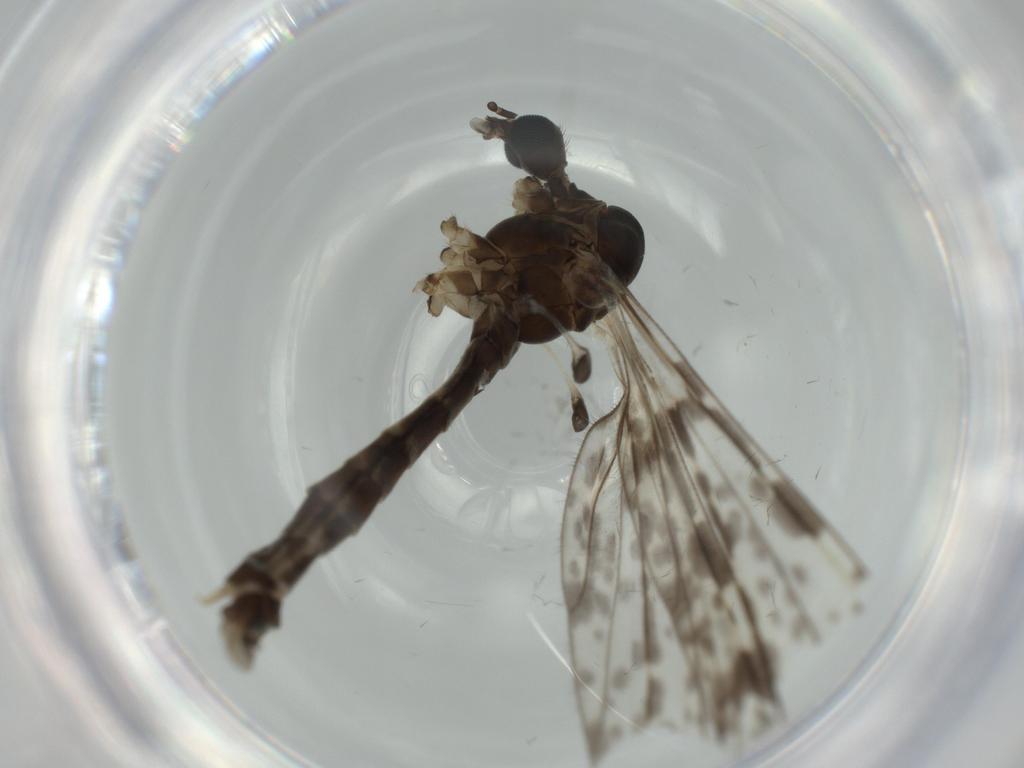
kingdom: Animalia
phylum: Arthropoda
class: Insecta
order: Diptera
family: Limoniidae
